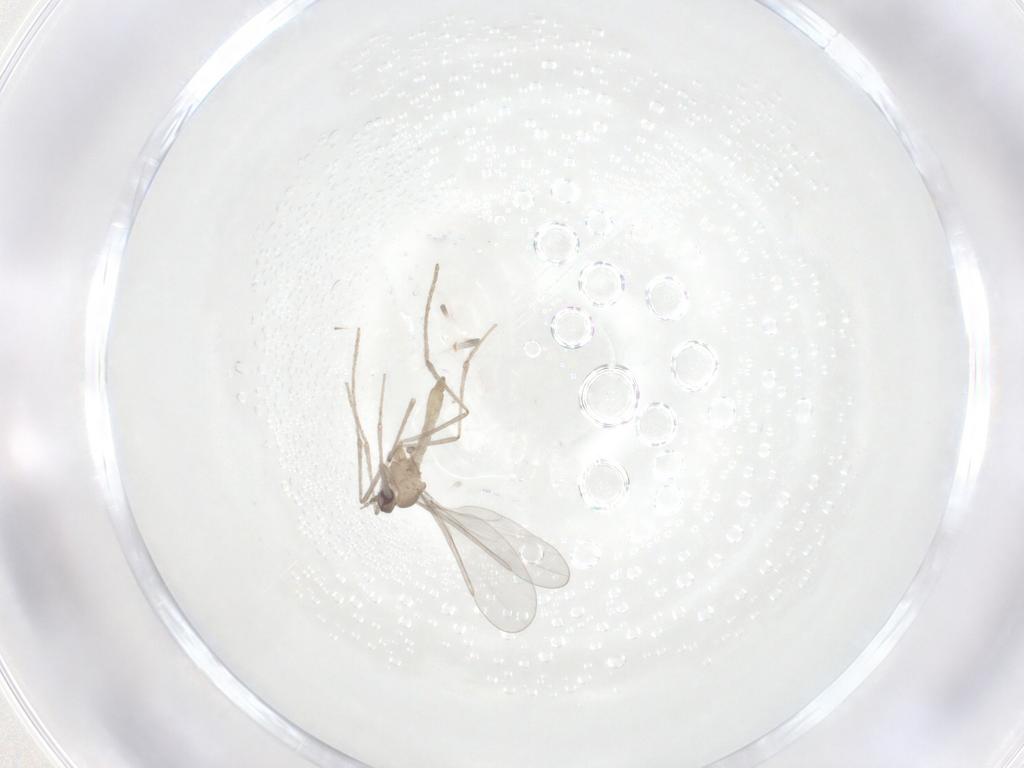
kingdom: Animalia
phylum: Arthropoda
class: Insecta
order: Diptera
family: Cecidomyiidae
